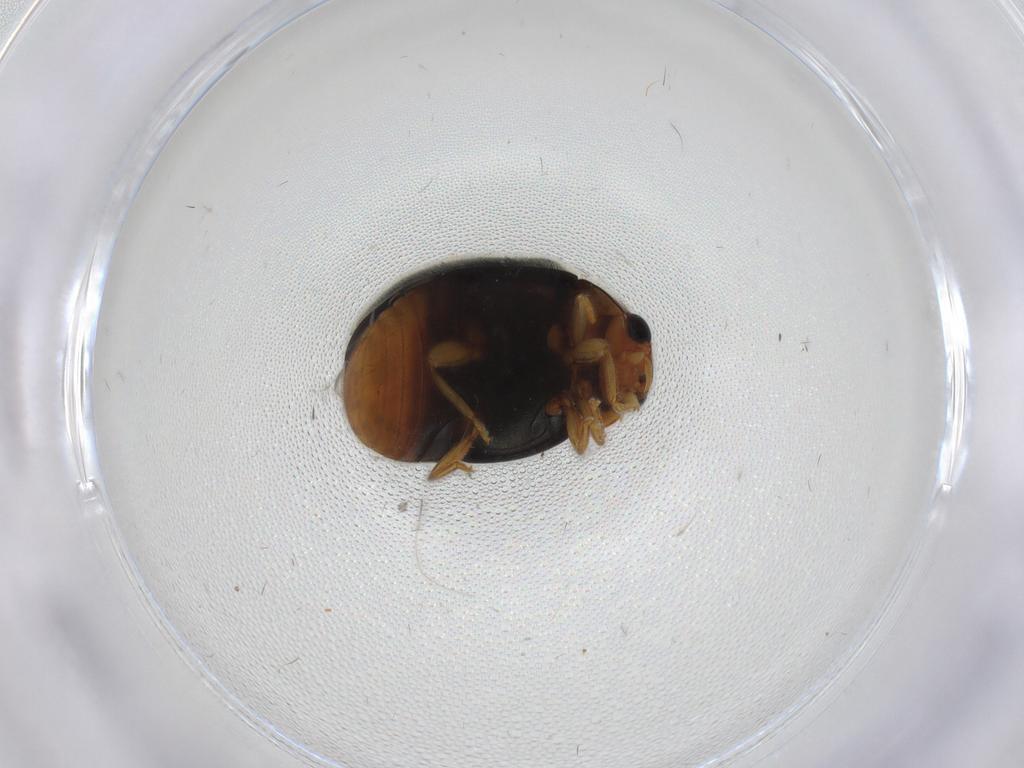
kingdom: Animalia
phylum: Arthropoda
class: Insecta
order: Coleoptera
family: Coccinellidae
